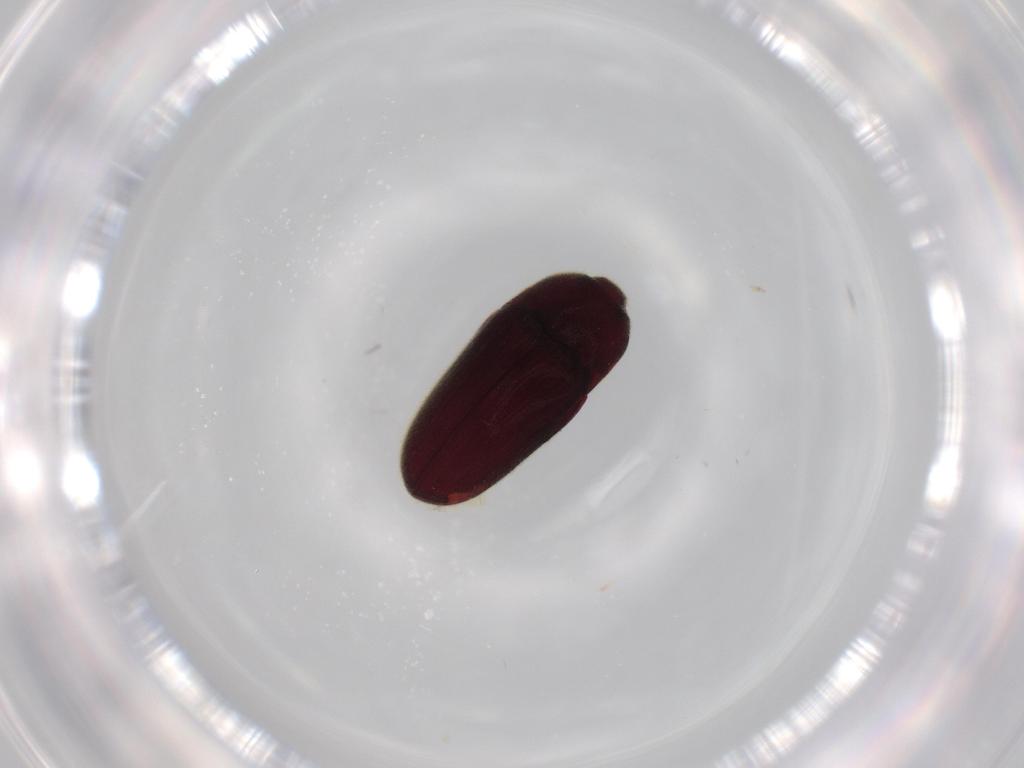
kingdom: Animalia
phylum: Arthropoda
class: Insecta
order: Coleoptera
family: Throscidae
